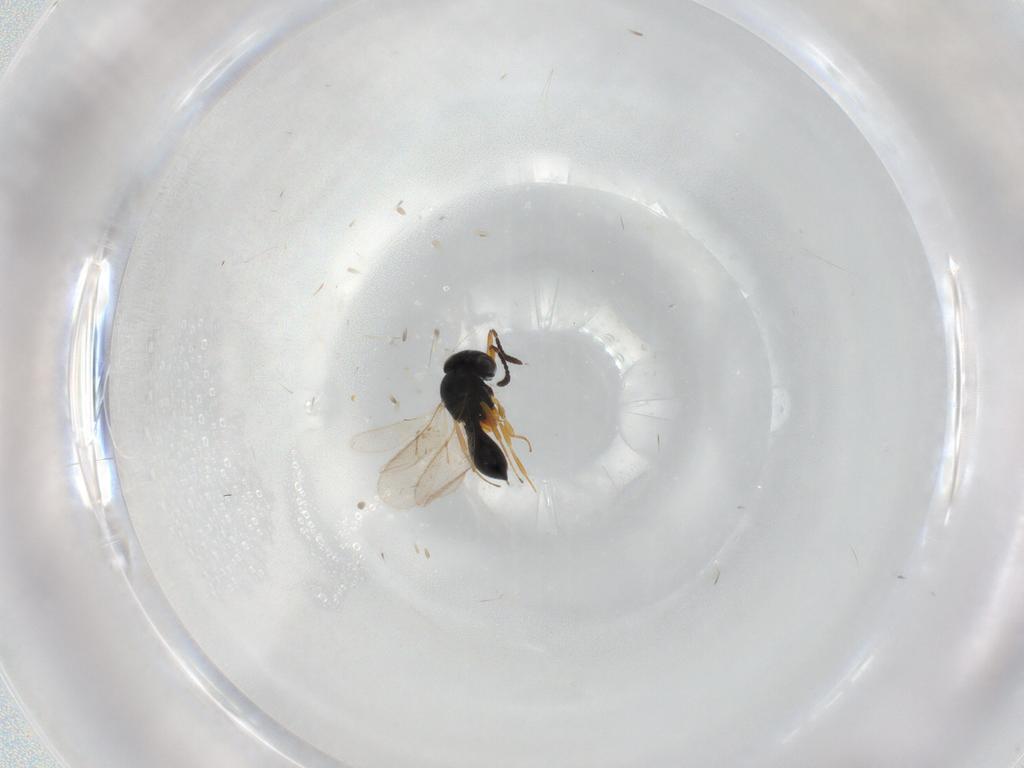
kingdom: Animalia
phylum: Arthropoda
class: Insecta
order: Hymenoptera
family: Scelionidae
